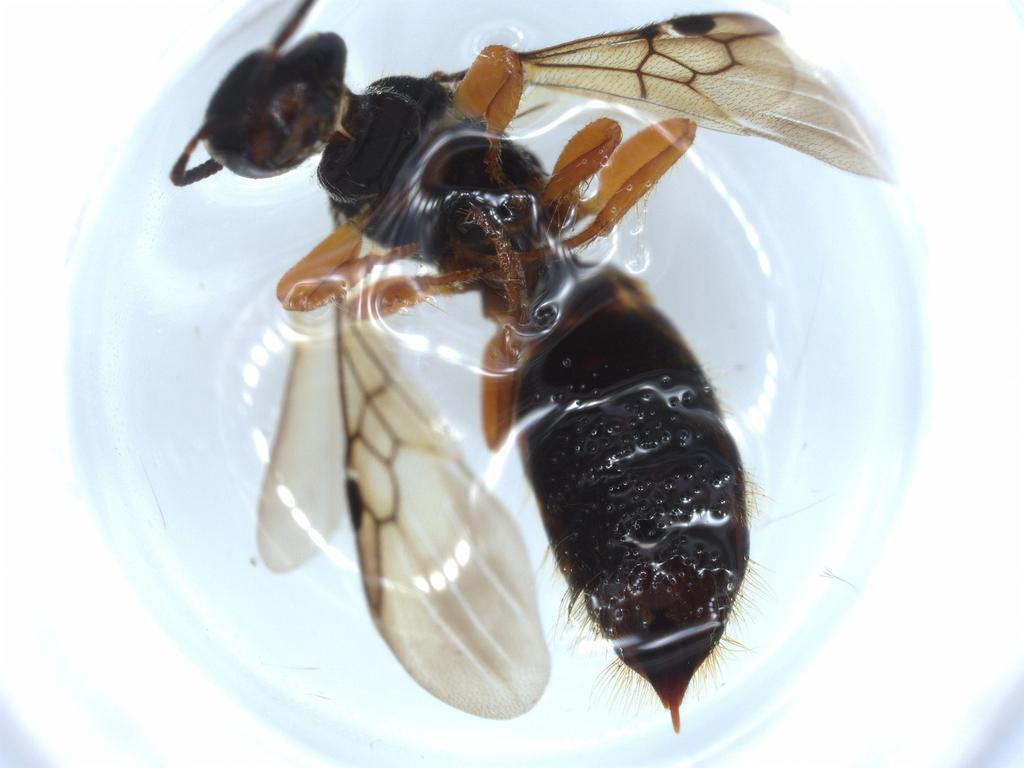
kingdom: Animalia
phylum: Arthropoda
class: Insecta
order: Hymenoptera
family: Scolebythidae
